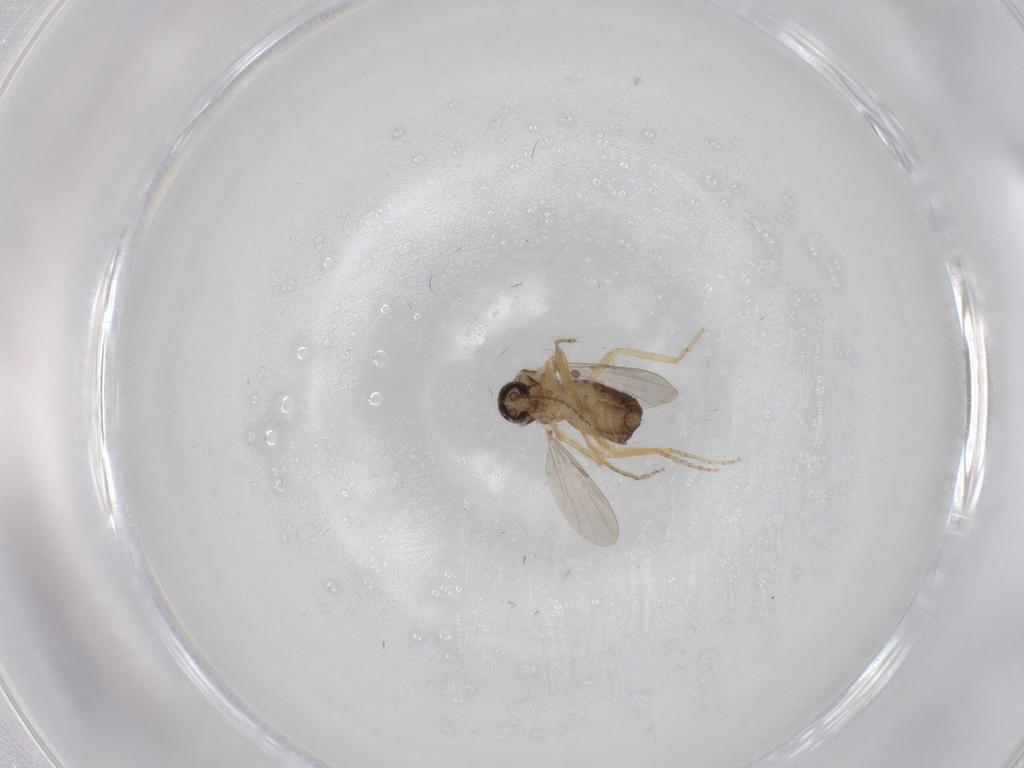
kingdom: Animalia
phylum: Arthropoda
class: Insecta
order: Diptera
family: Ceratopogonidae
